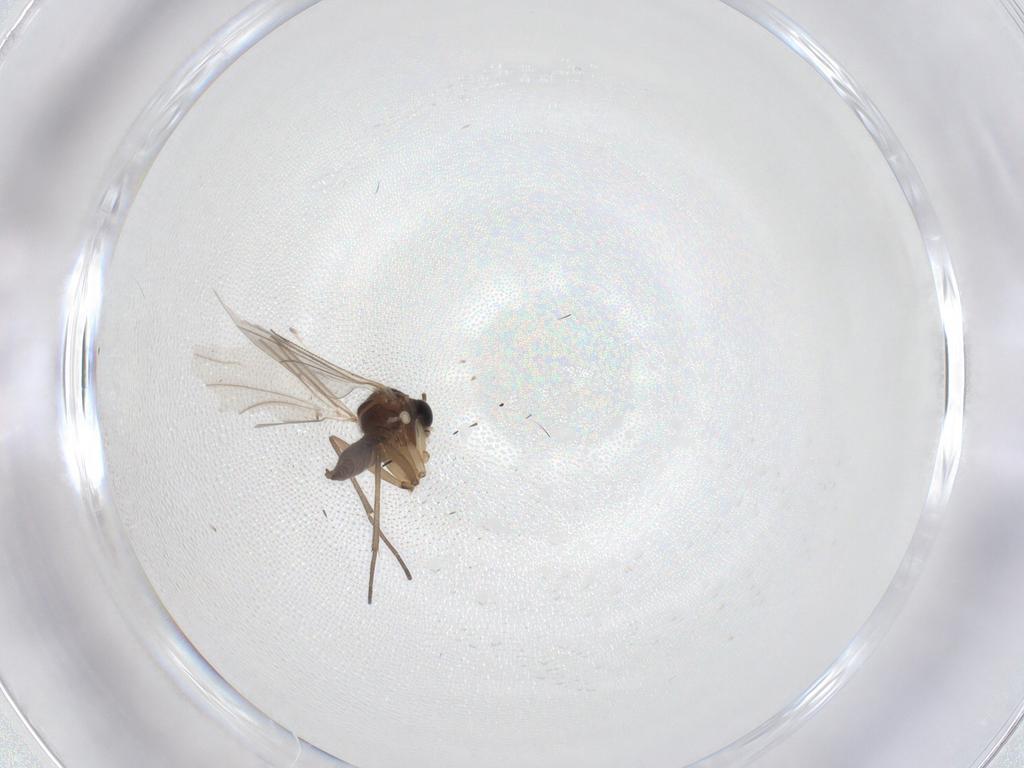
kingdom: Animalia
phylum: Arthropoda
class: Insecta
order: Diptera
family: Sciaridae
